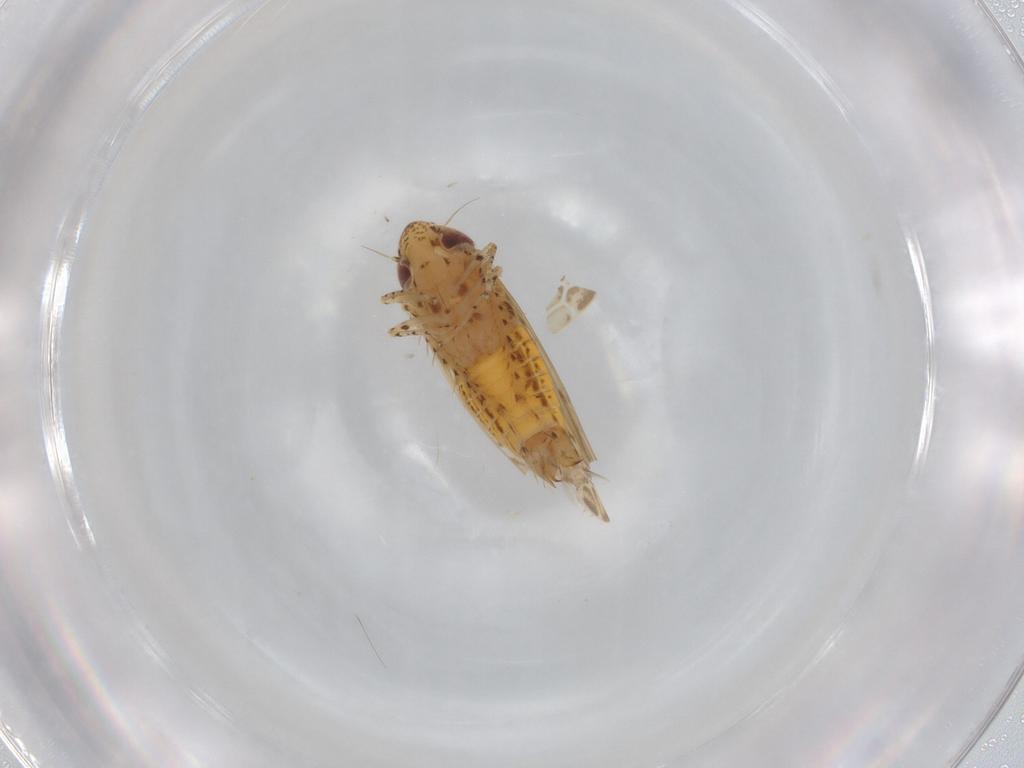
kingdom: Animalia
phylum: Arthropoda
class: Insecta
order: Hemiptera
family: Cicadellidae
